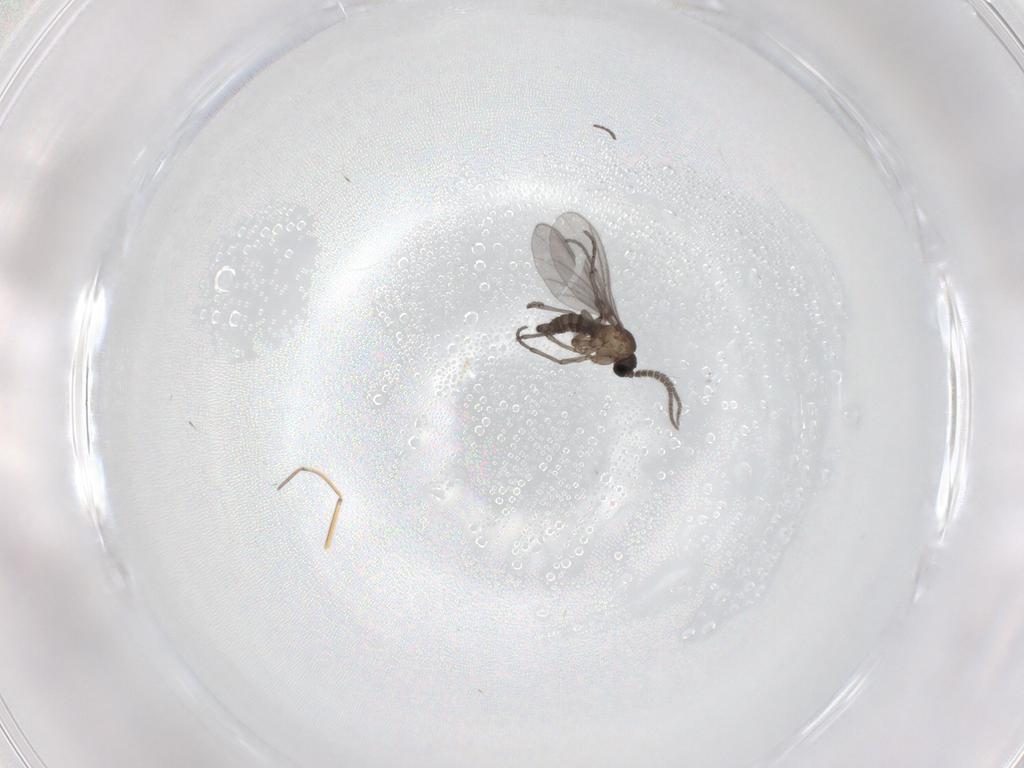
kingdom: Animalia
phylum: Arthropoda
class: Insecta
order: Diptera
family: Sciaridae
